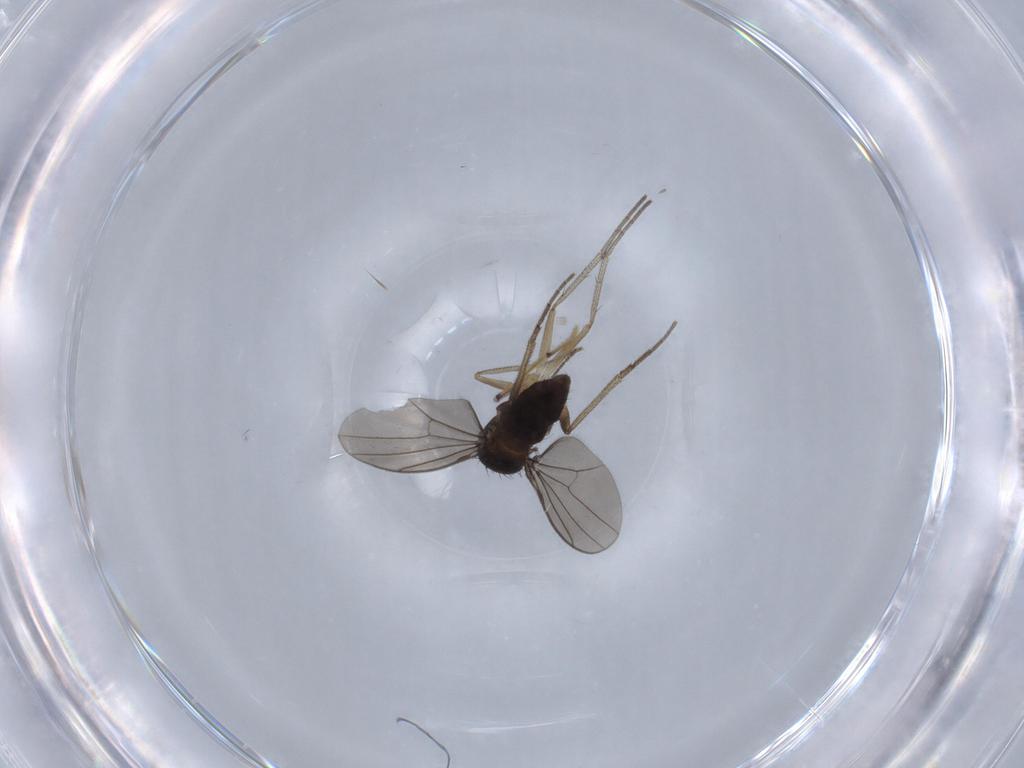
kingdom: Animalia
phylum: Arthropoda
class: Insecta
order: Diptera
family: Dolichopodidae
